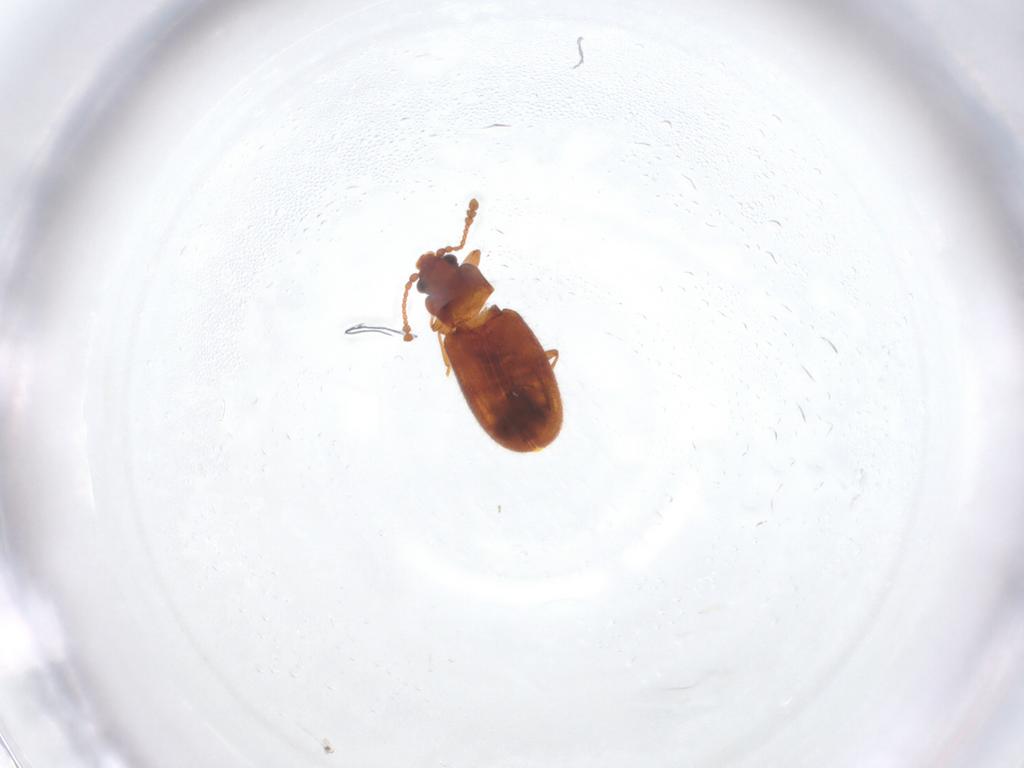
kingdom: Animalia
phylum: Arthropoda
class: Insecta
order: Coleoptera
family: Cryptophagidae
